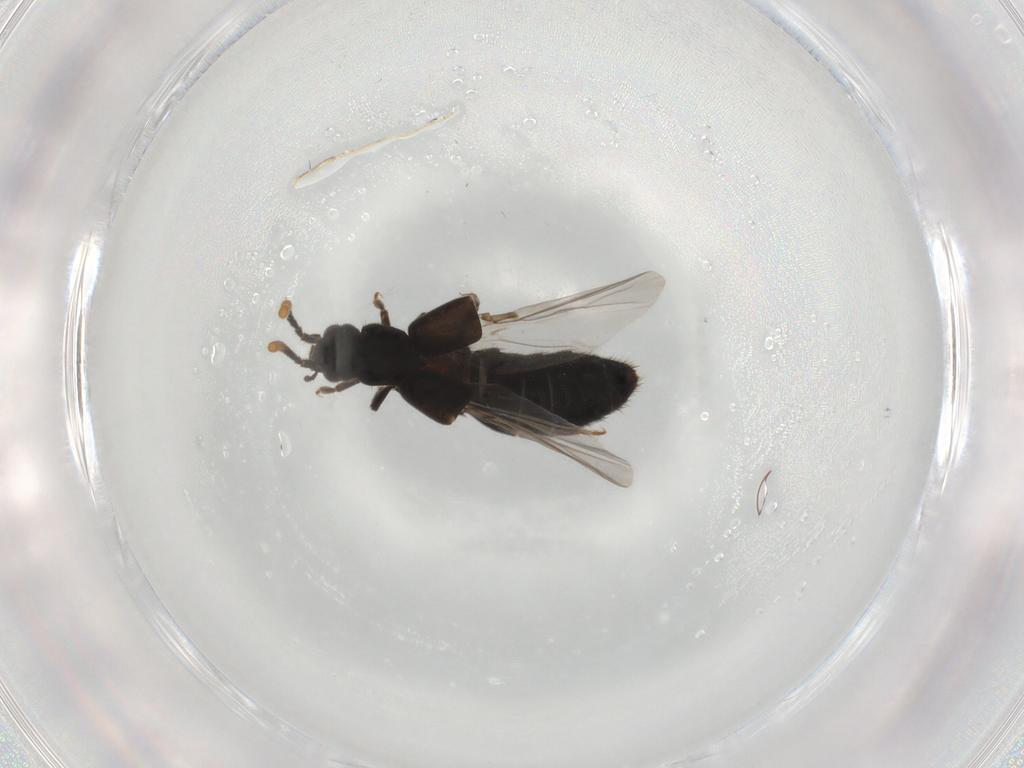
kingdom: Animalia
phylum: Arthropoda
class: Insecta
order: Coleoptera
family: Staphylinidae
